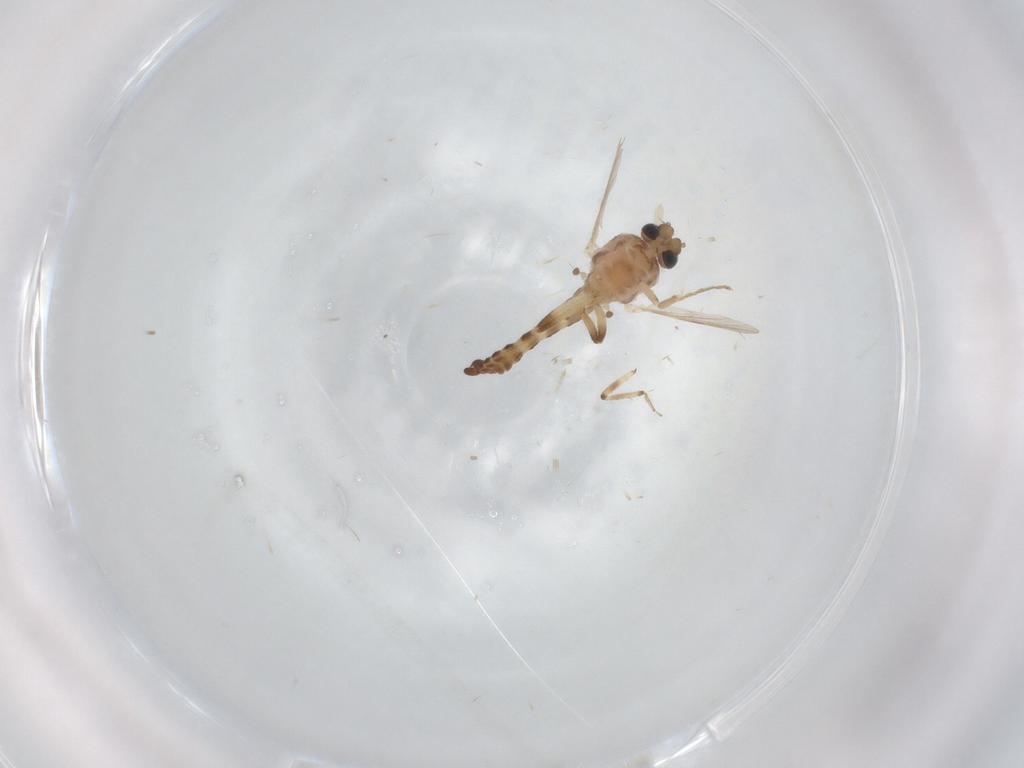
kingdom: Animalia
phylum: Arthropoda
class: Insecta
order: Diptera
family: Ceratopogonidae
